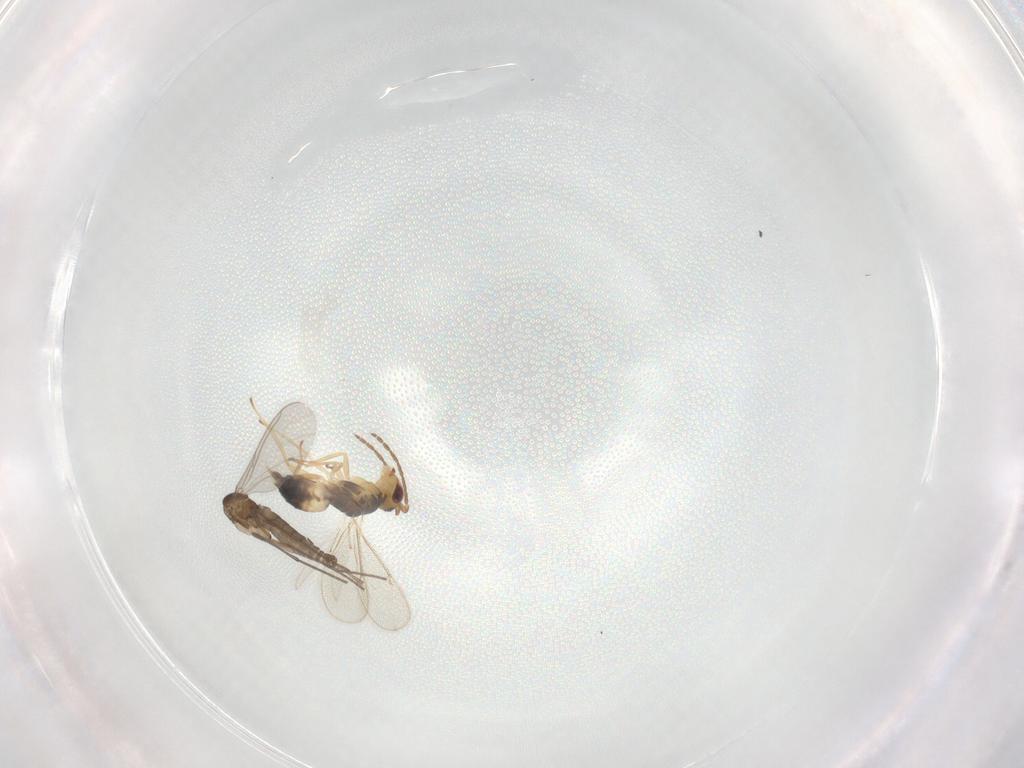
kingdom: Animalia
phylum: Arthropoda
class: Insecta
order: Diptera
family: Sciaridae
